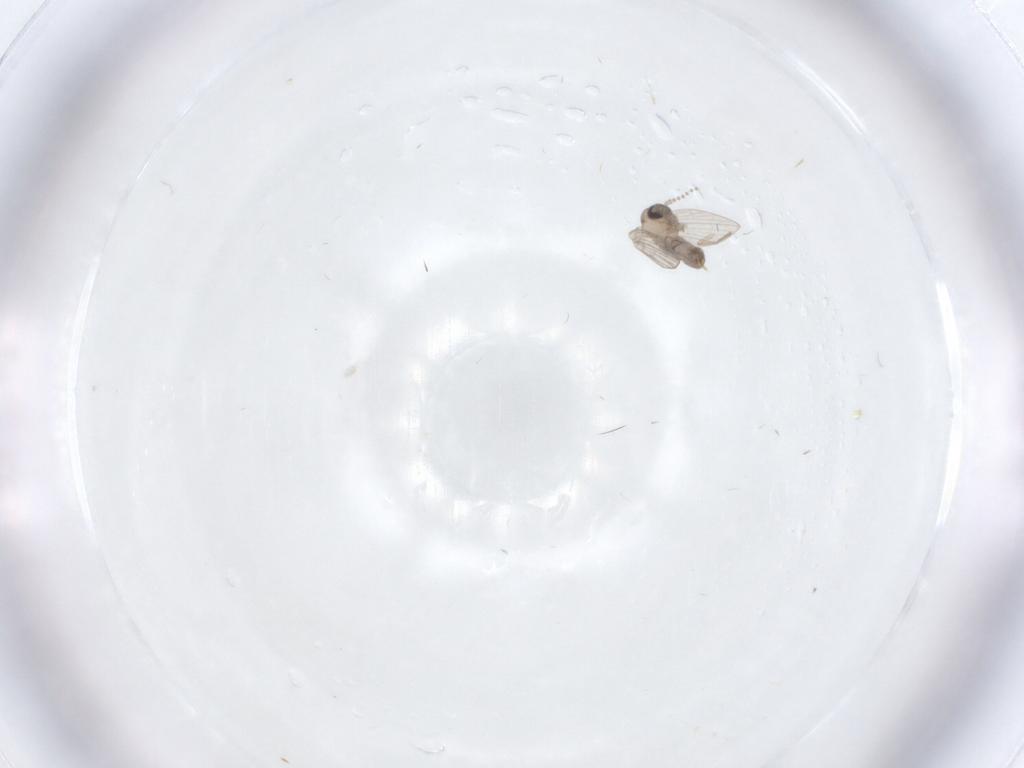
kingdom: Animalia
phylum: Arthropoda
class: Insecta
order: Diptera
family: Psychodidae
